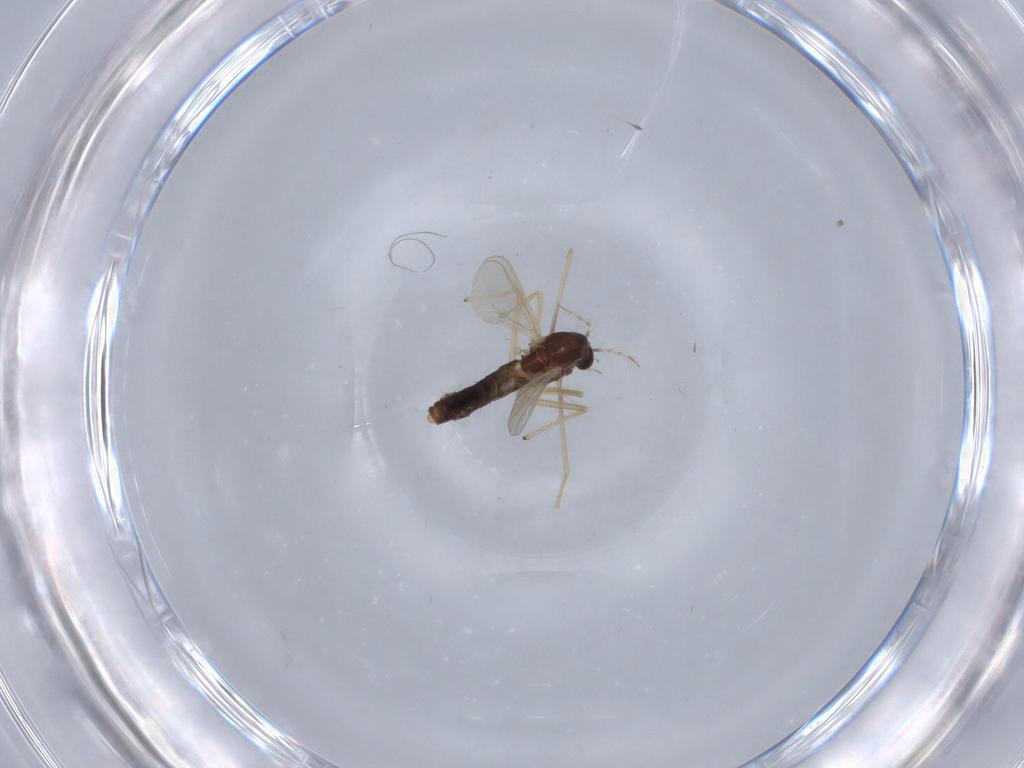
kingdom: Animalia
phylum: Arthropoda
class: Insecta
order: Diptera
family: Chironomidae
